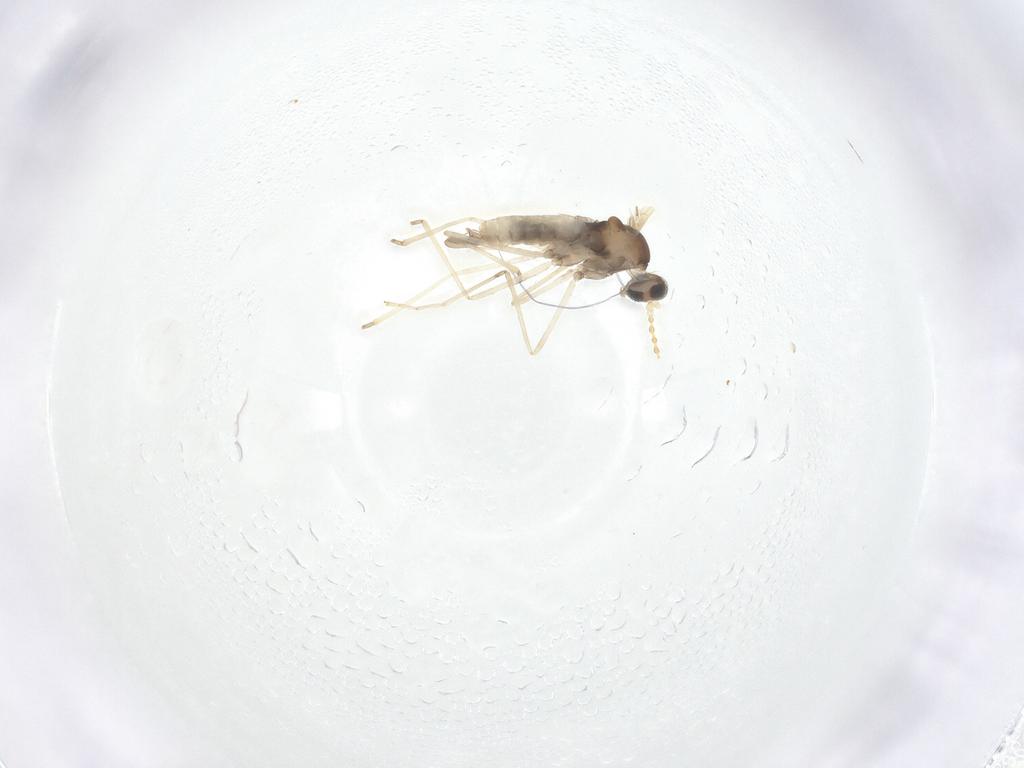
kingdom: Animalia
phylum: Arthropoda
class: Insecta
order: Diptera
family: Cecidomyiidae
